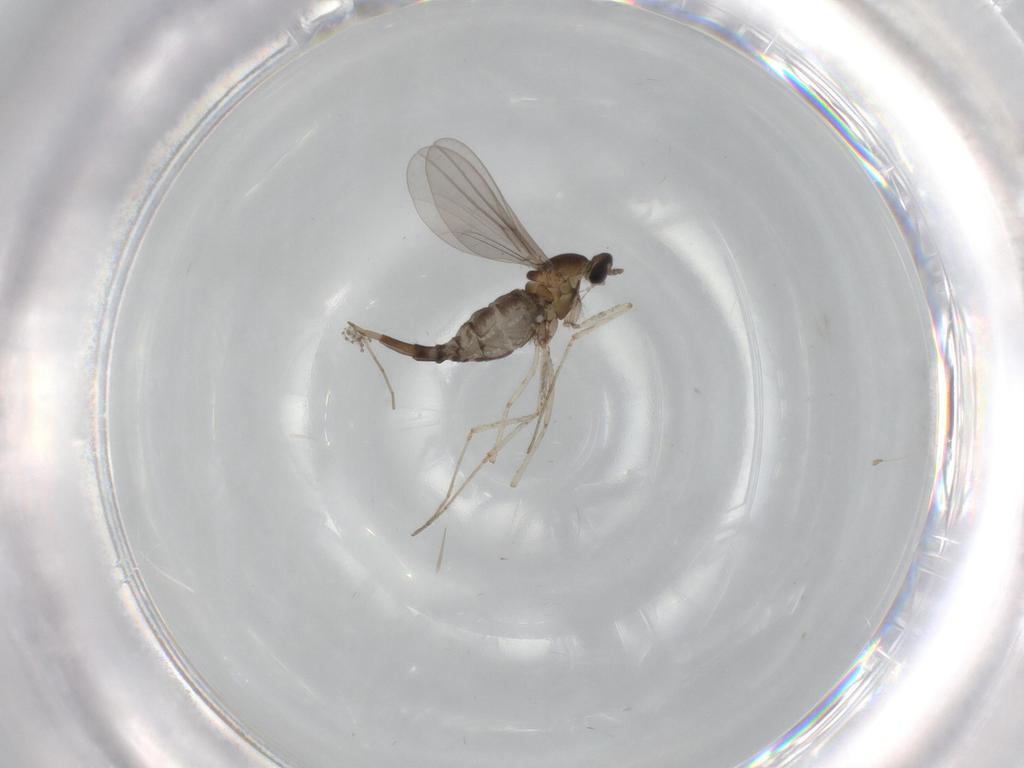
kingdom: Animalia
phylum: Arthropoda
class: Insecta
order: Diptera
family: Cecidomyiidae
